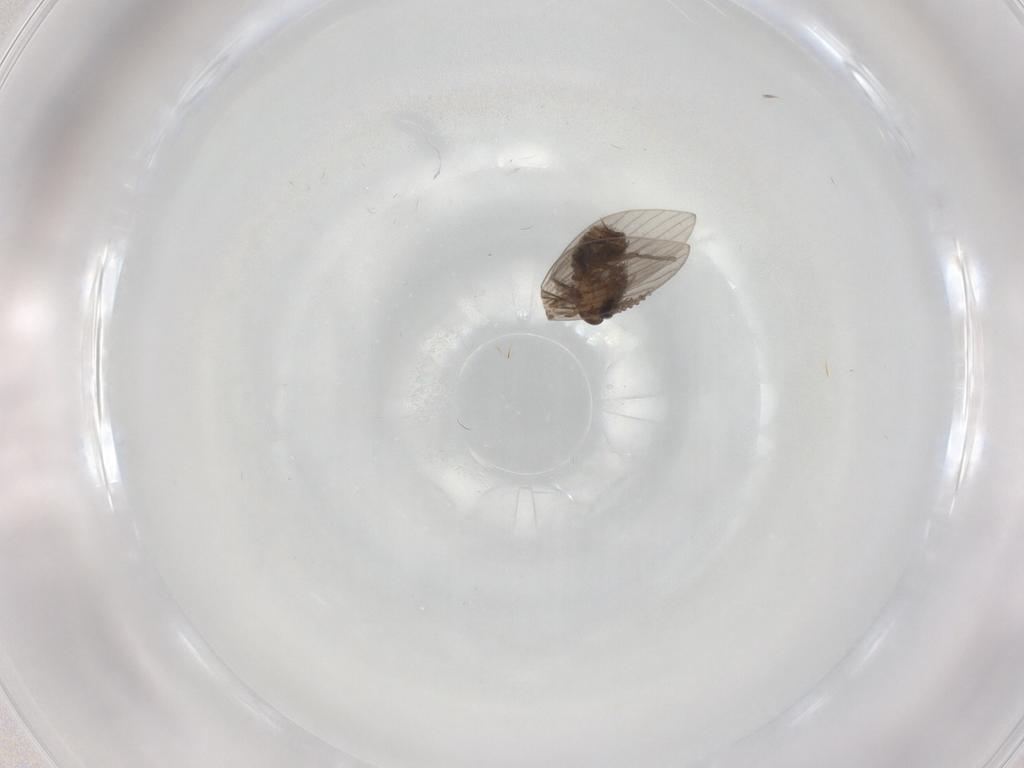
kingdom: Animalia
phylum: Arthropoda
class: Insecta
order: Diptera
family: Psychodidae
